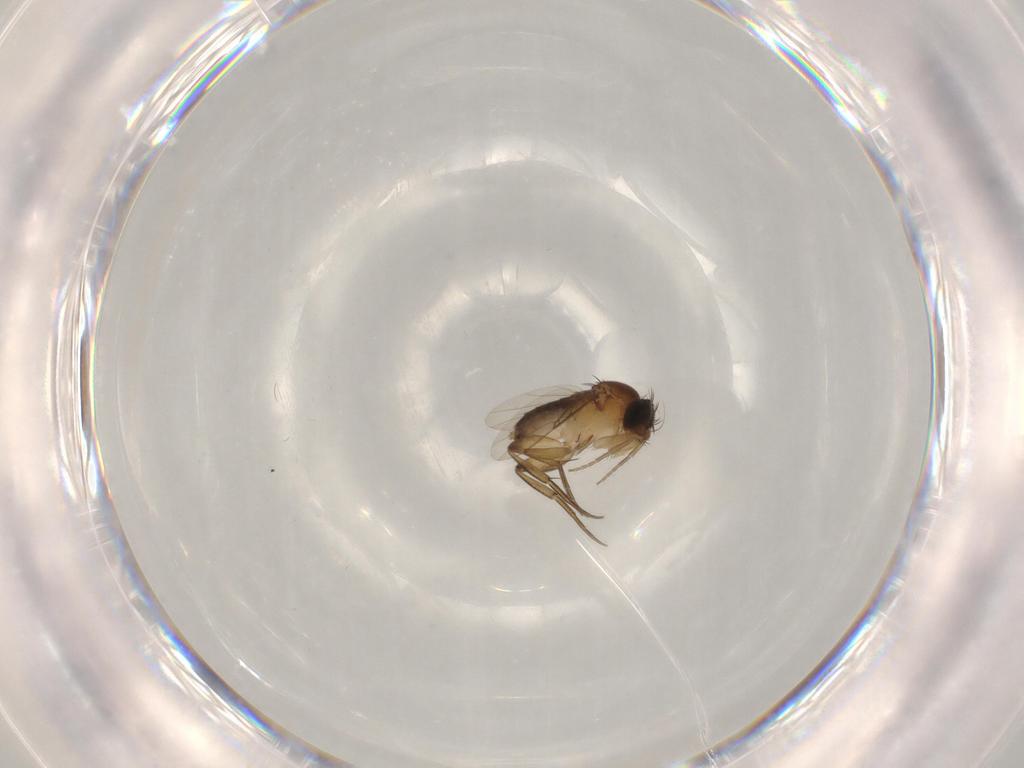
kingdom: Animalia
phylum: Arthropoda
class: Insecta
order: Diptera
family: Phoridae
